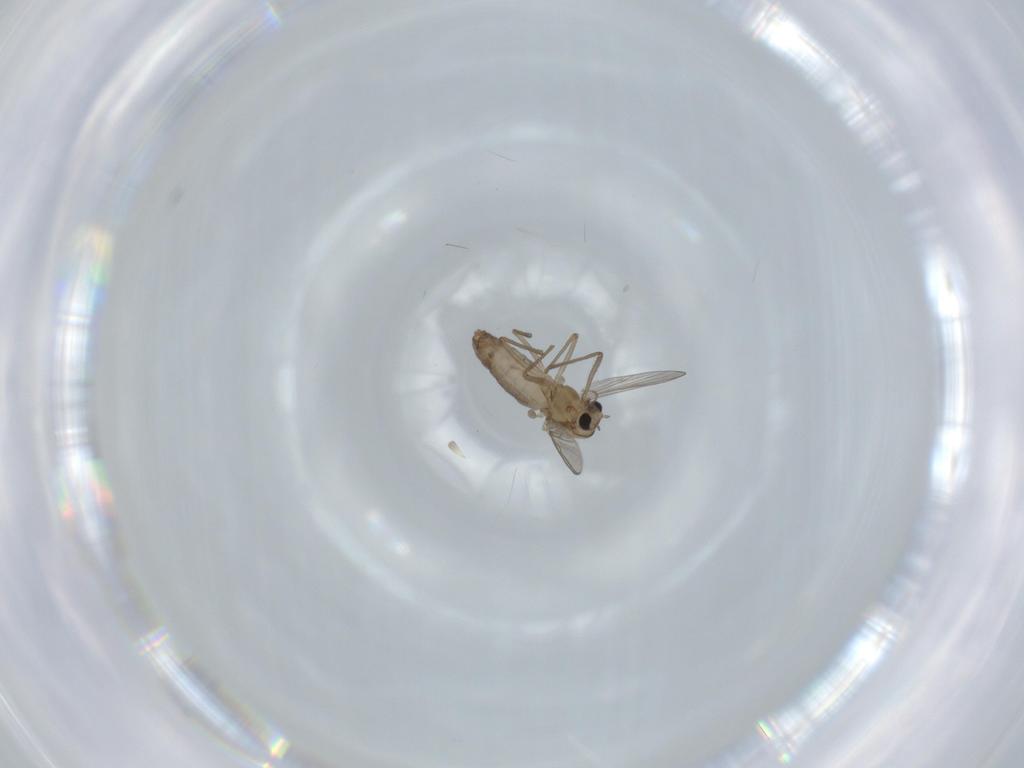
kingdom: Animalia
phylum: Arthropoda
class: Insecta
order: Diptera
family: Chironomidae
